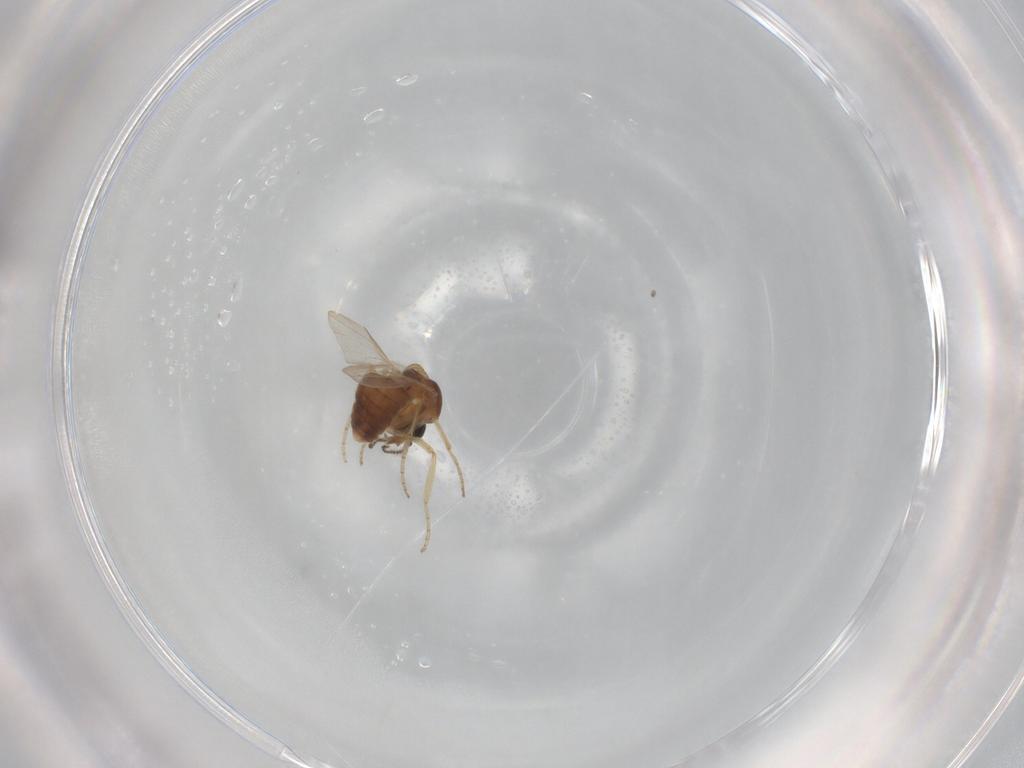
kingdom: Animalia
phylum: Arthropoda
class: Insecta
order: Diptera
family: Ceratopogonidae
